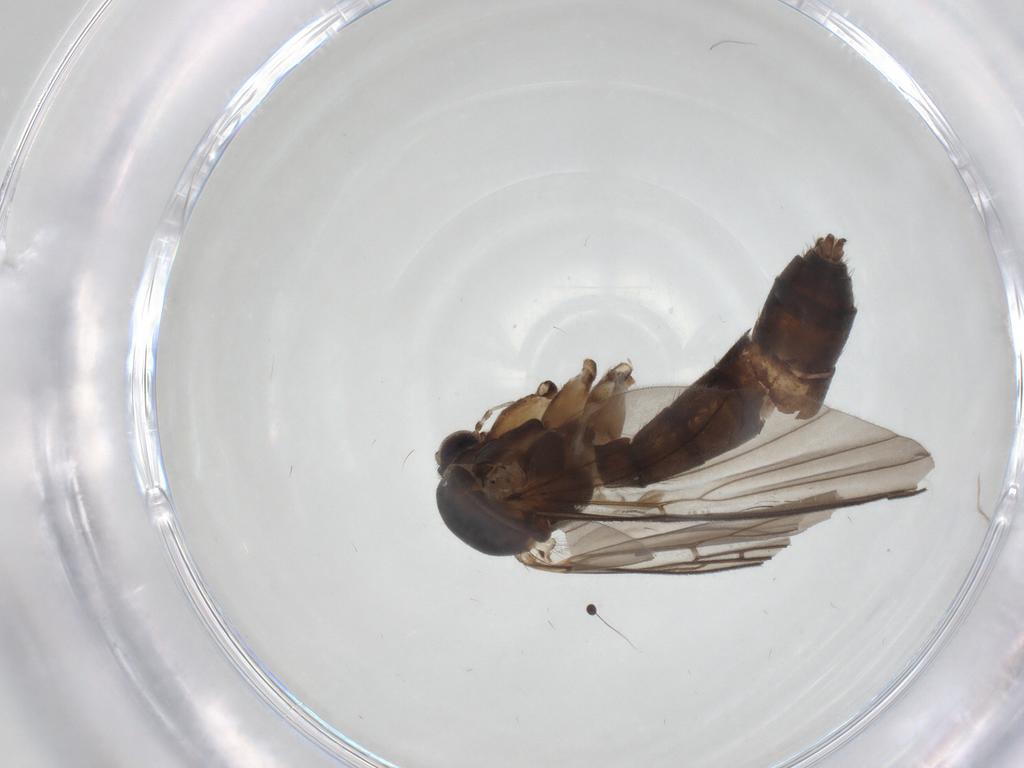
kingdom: Animalia
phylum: Arthropoda
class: Insecta
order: Diptera
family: Mycetophilidae
